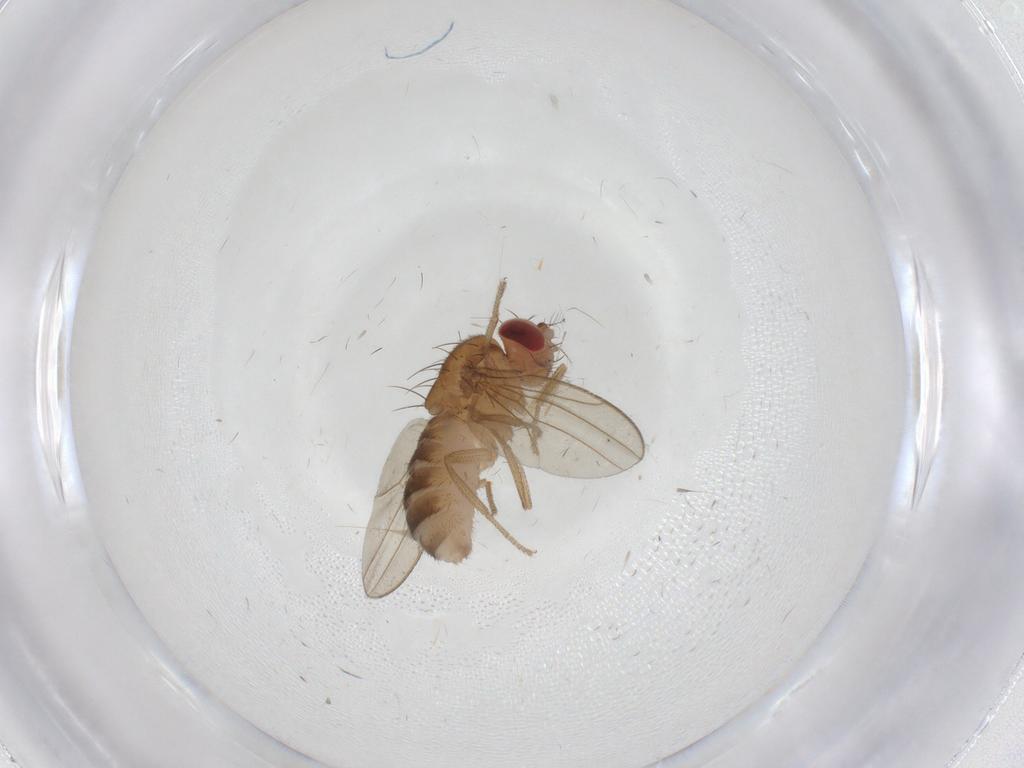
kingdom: Animalia
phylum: Arthropoda
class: Insecta
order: Diptera
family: Drosophilidae
